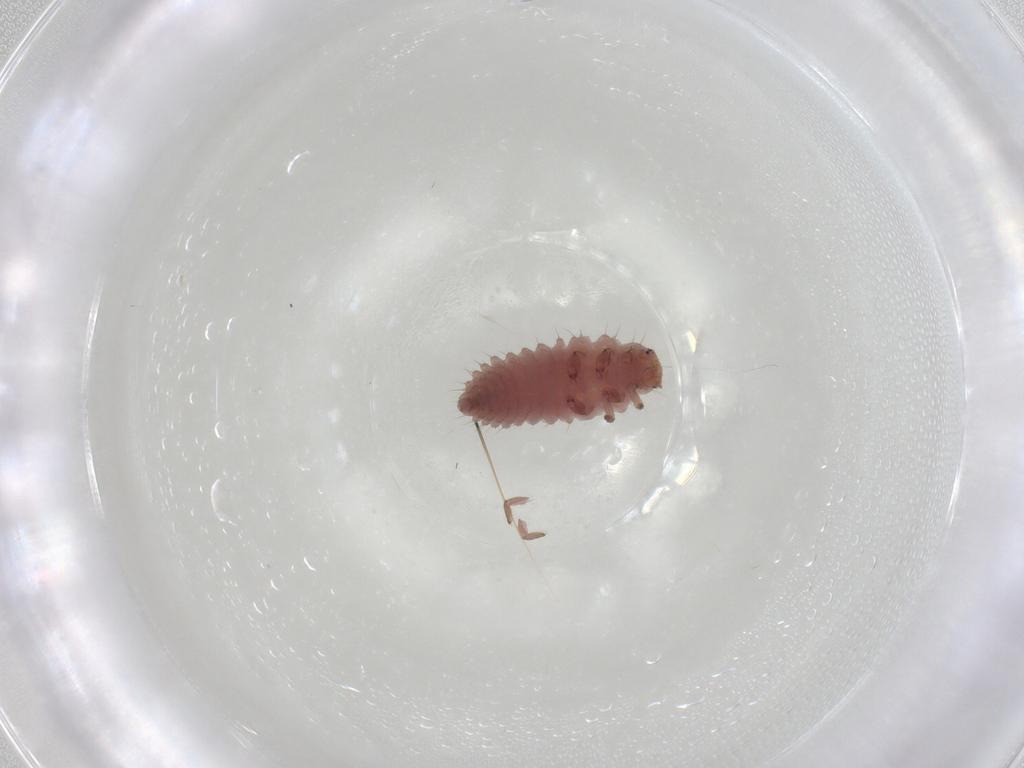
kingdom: Animalia
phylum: Arthropoda
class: Insecta
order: Coleoptera
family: Coccinellidae
